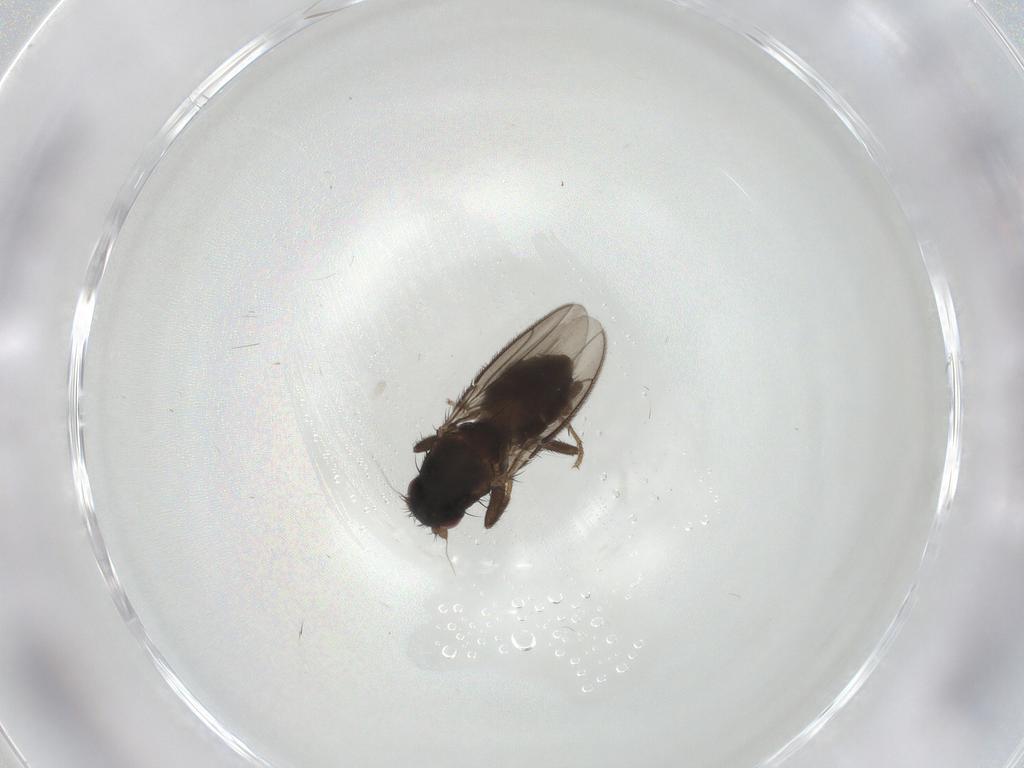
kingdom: Animalia
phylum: Arthropoda
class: Insecta
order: Diptera
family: Sphaeroceridae
